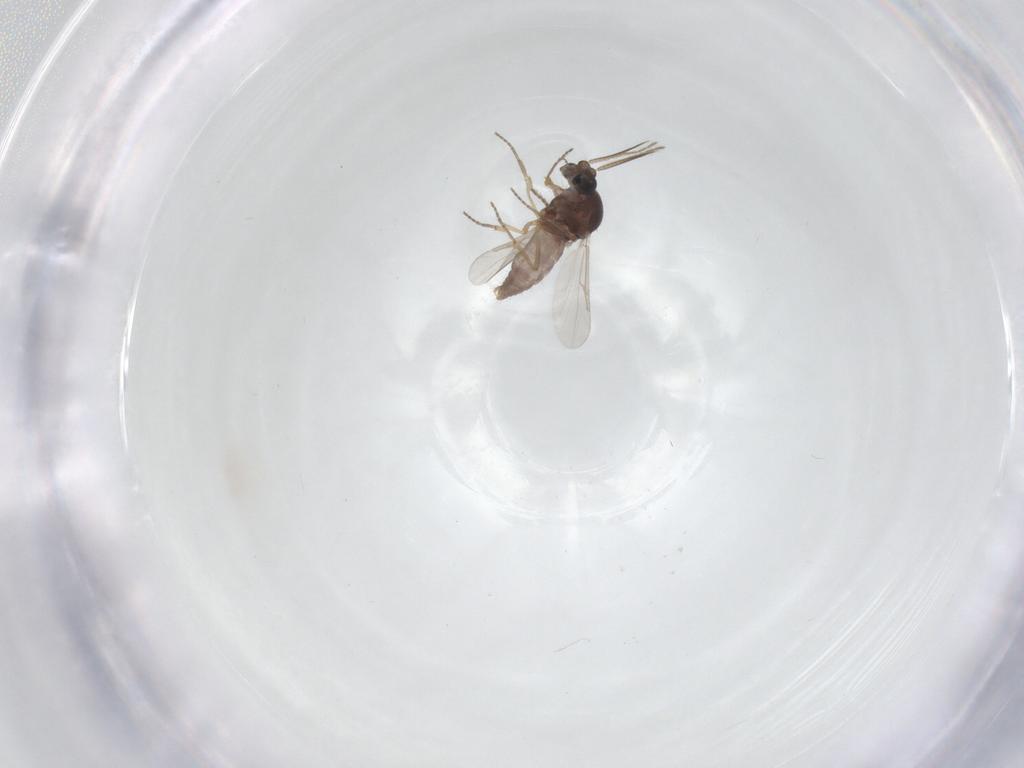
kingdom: Animalia
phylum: Arthropoda
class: Insecta
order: Diptera
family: Ceratopogonidae
